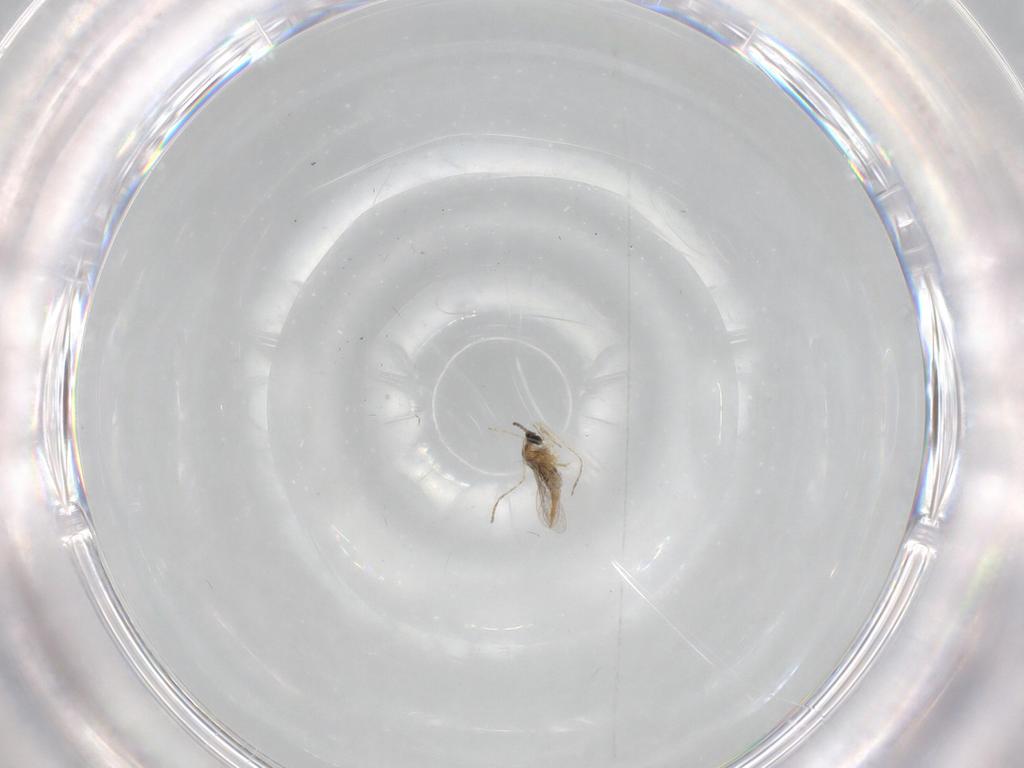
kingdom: Animalia
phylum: Arthropoda
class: Insecta
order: Diptera
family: Cecidomyiidae
